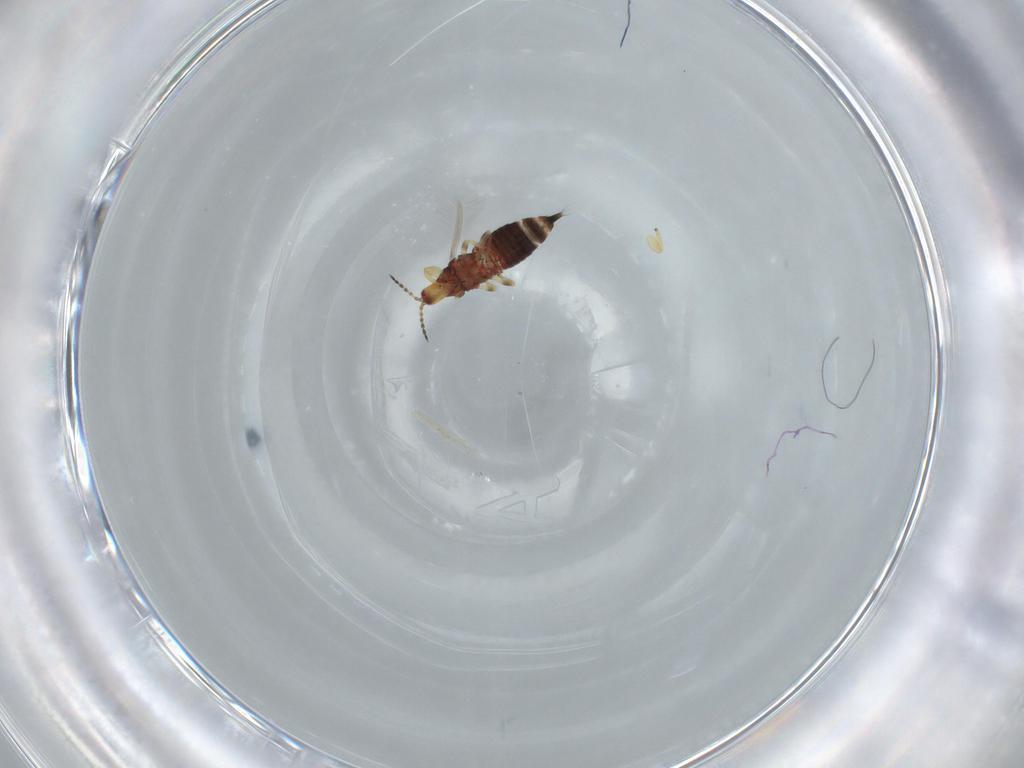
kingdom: Animalia
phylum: Arthropoda
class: Insecta
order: Thysanoptera
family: Phlaeothripidae
